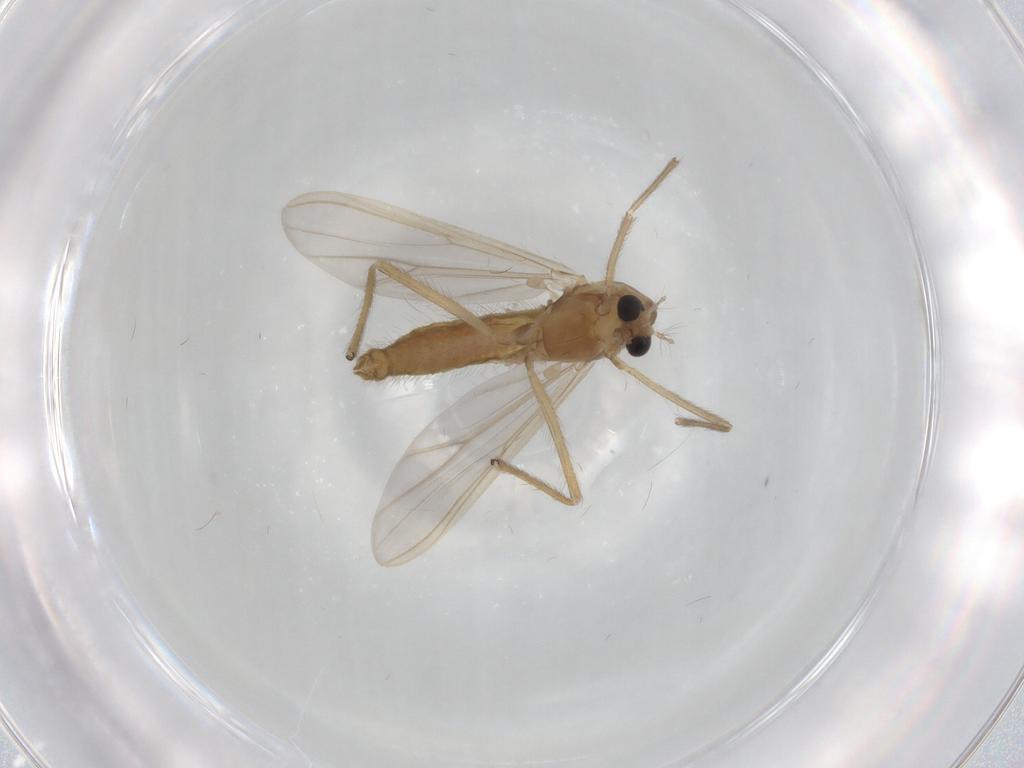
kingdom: Animalia
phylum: Arthropoda
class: Insecta
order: Diptera
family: Chironomidae
